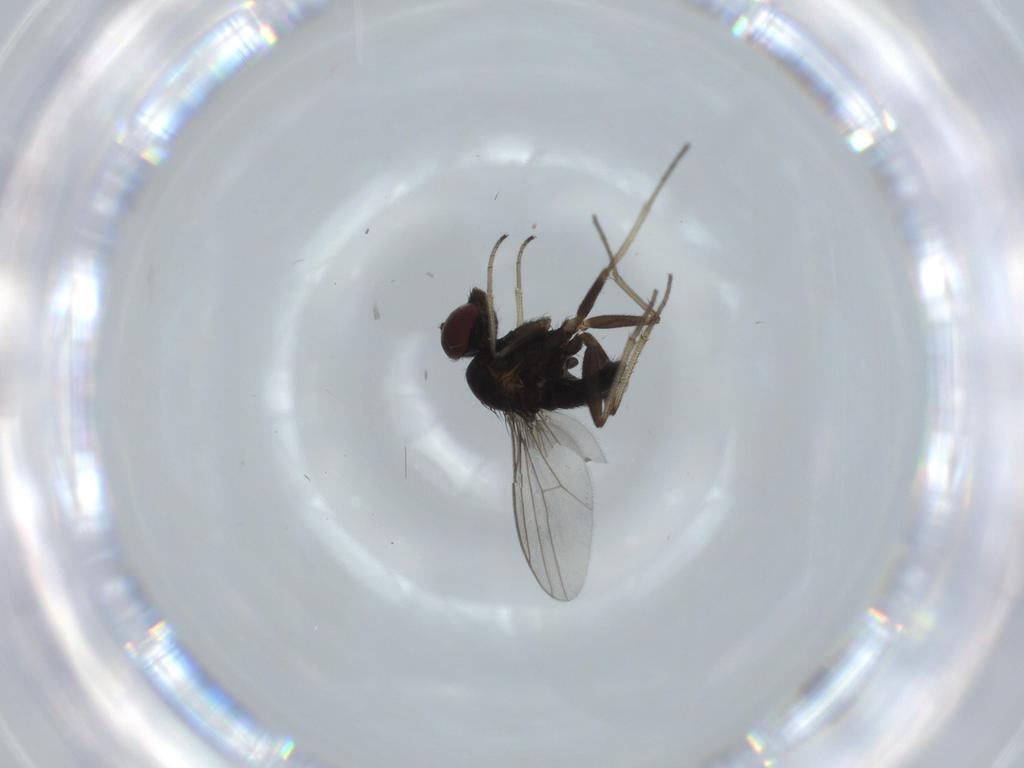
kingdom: Animalia
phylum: Arthropoda
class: Insecta
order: Diptera
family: Dolichopodidae
